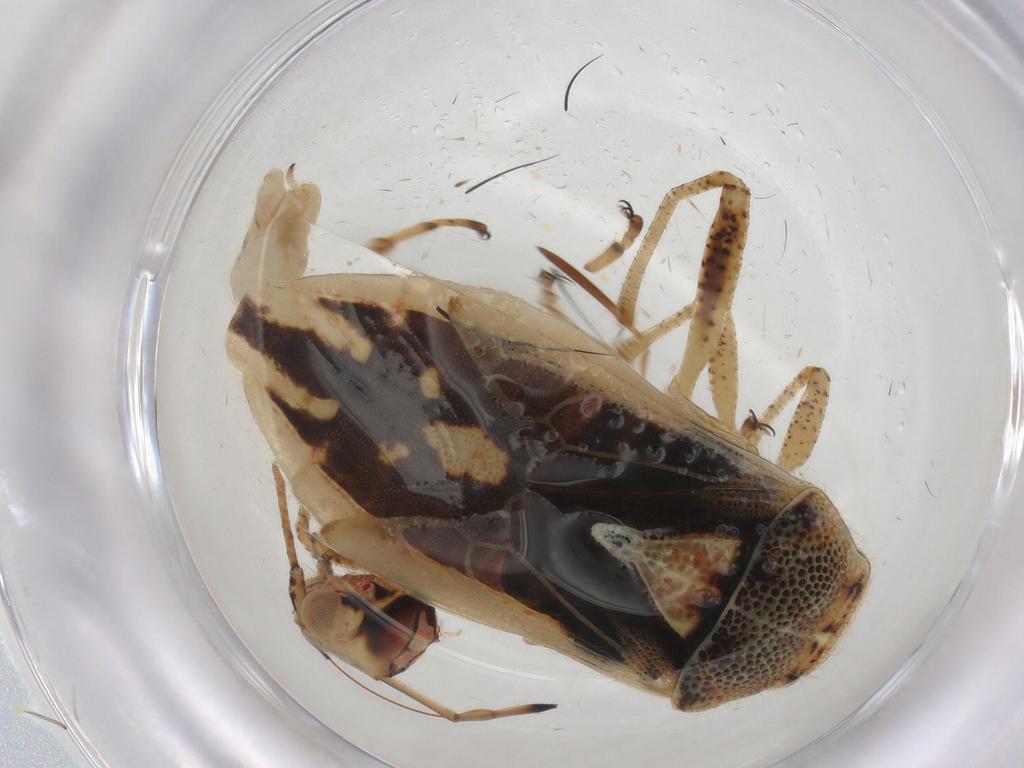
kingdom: Animalia
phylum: Arthropoda
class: Insecta
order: Hemiptera
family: Rhopalidae
